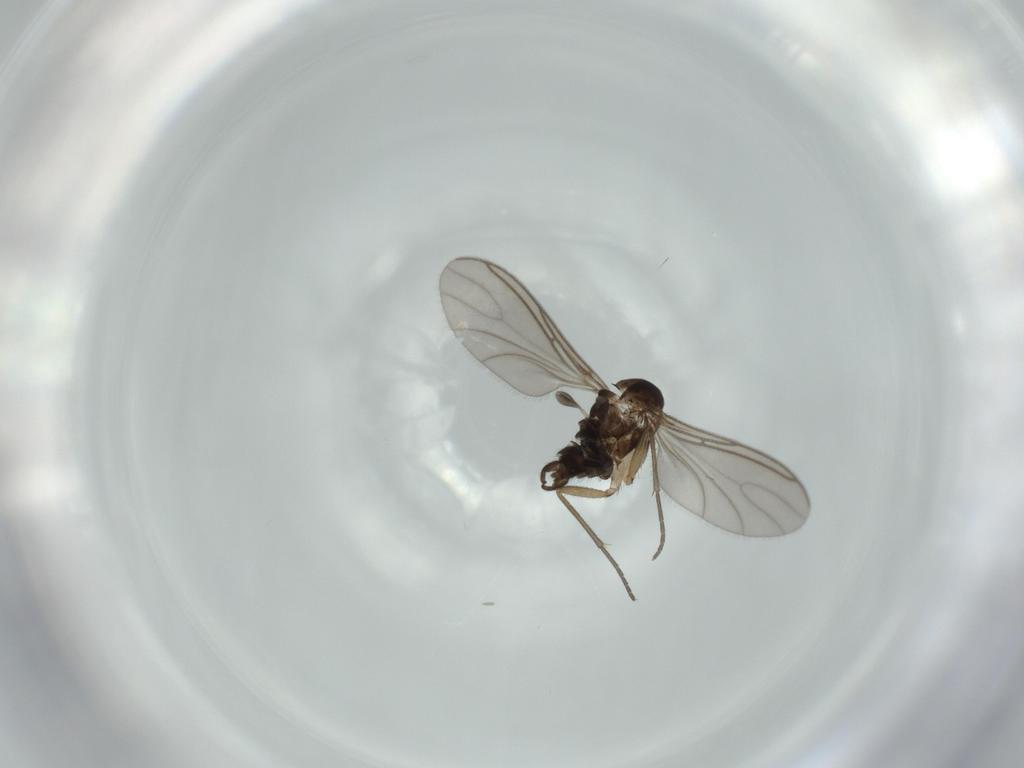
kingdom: Animalia
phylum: Arthropoda
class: Insecta
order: Diptera
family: Sciaridae
